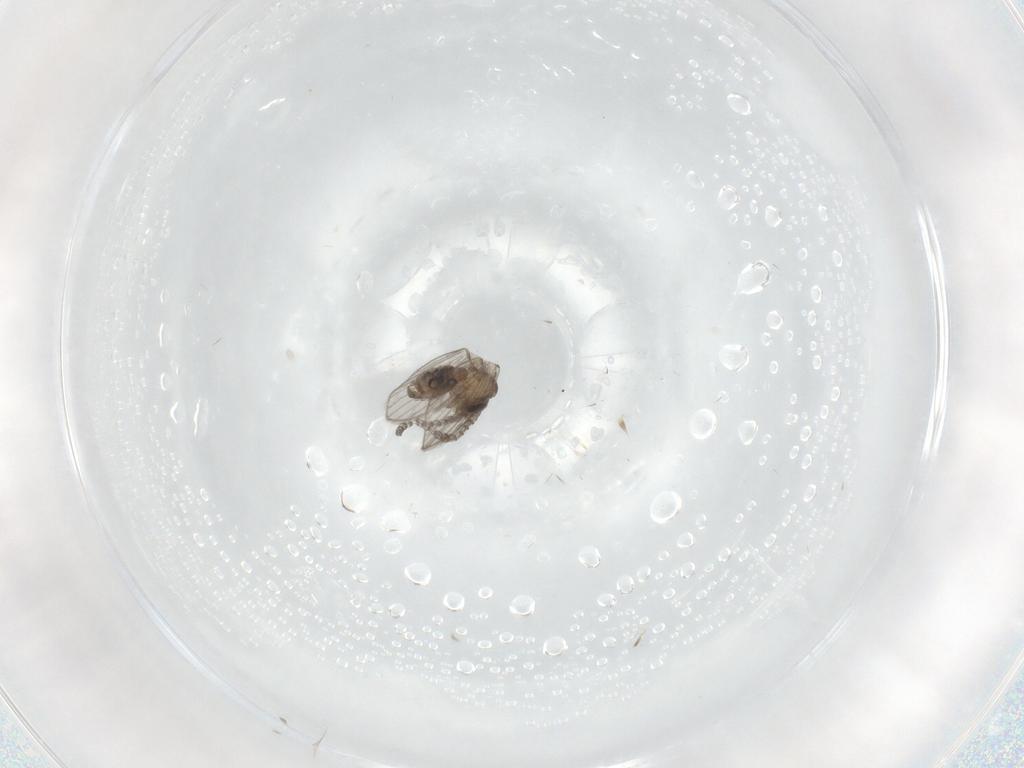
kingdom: Animalia
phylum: Arthropoda
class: Insecta
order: Diptera
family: Psychodidae
